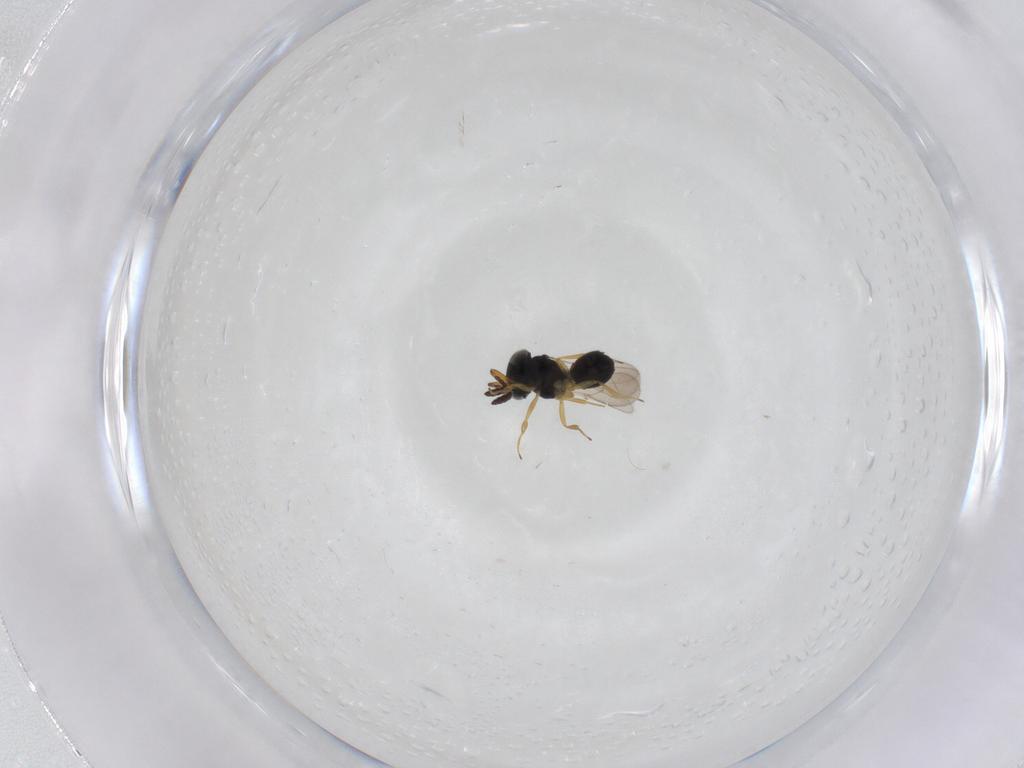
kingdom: Animalia
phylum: Arthropoda
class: Insecta
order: Hymenoptera
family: Scelionidae
